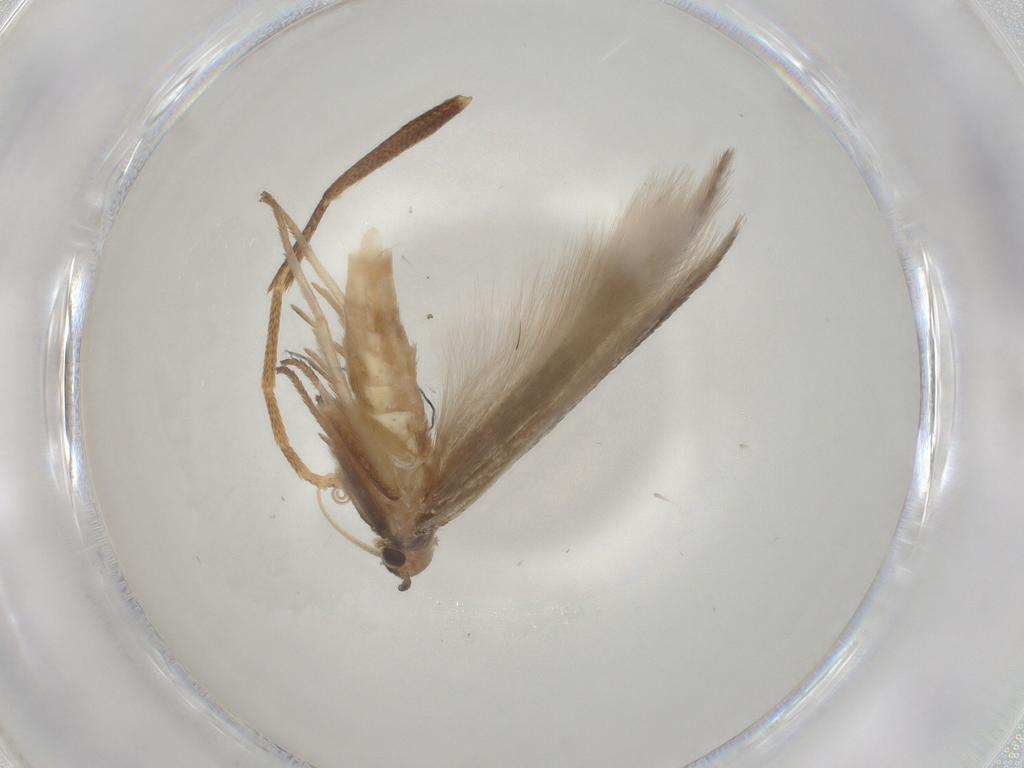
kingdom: Animalia
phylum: Arthropoda
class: Insecta
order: Lepidoptera
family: Gelechiidae
